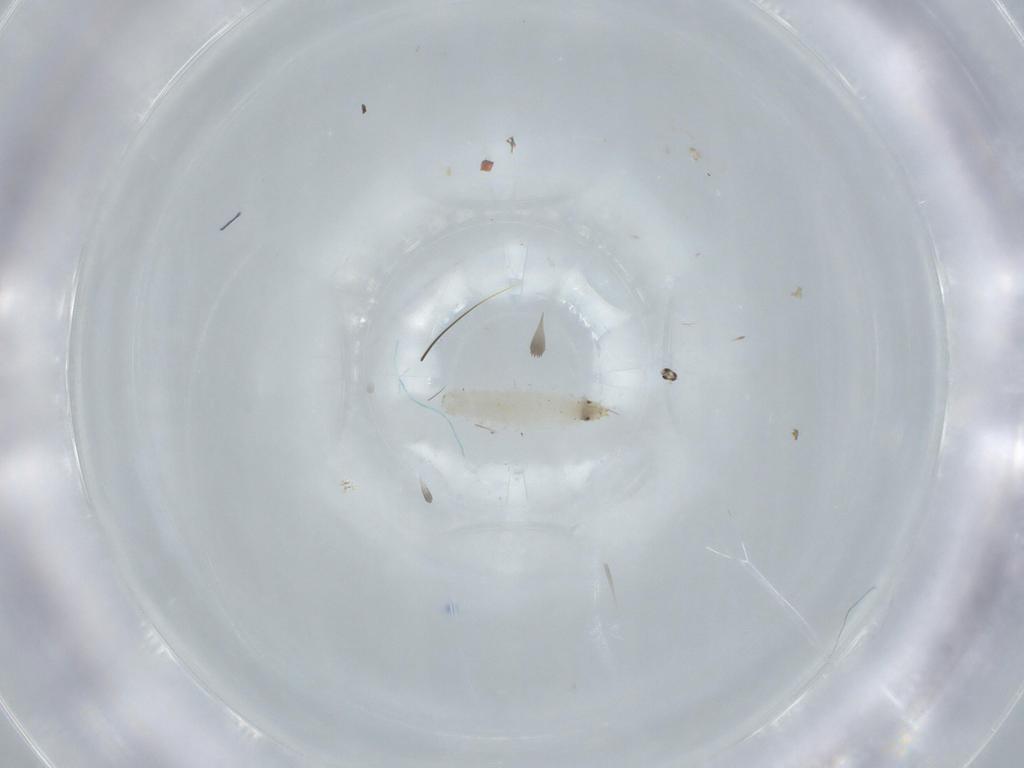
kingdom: Animalia
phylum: Arthropoda
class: Insecta
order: Diptera
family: Stratiomyidae
